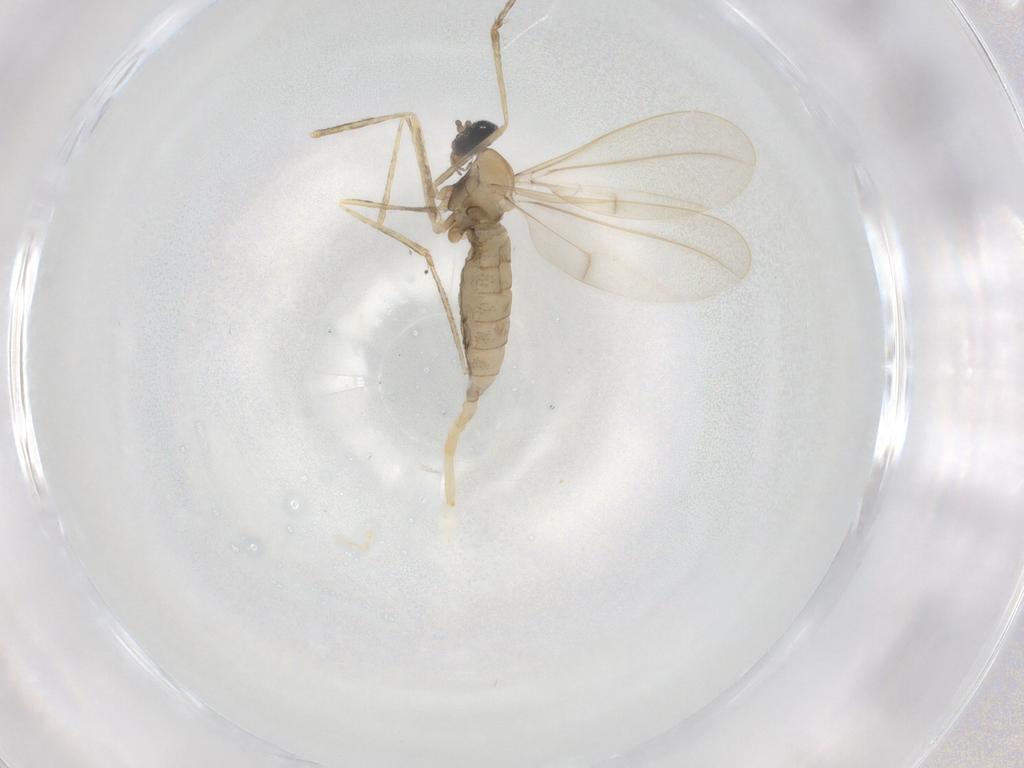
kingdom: Animalia
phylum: Arthropoda
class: Insecta
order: Diptera
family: Cecidomyiidae
